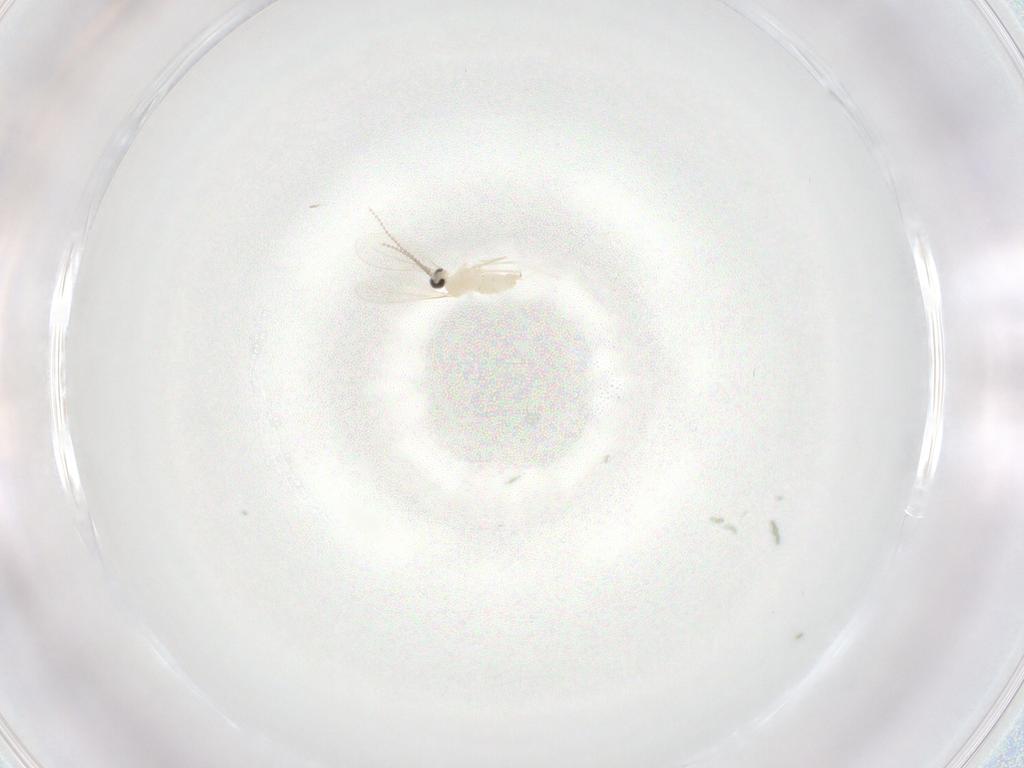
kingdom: Animalia
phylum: Arthropoda
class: Insecta
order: Diptera
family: Cecidomyiidae
